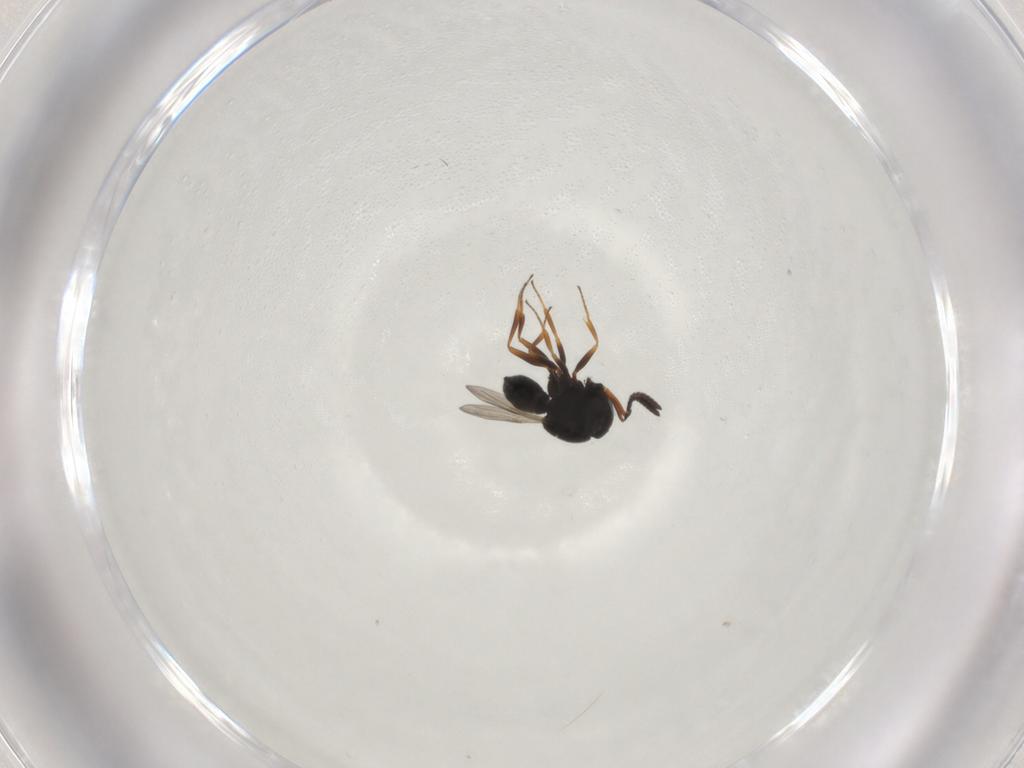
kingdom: Animalia
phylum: Arthropoda
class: Insecta
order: Hymenoptera
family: Scelionidae
